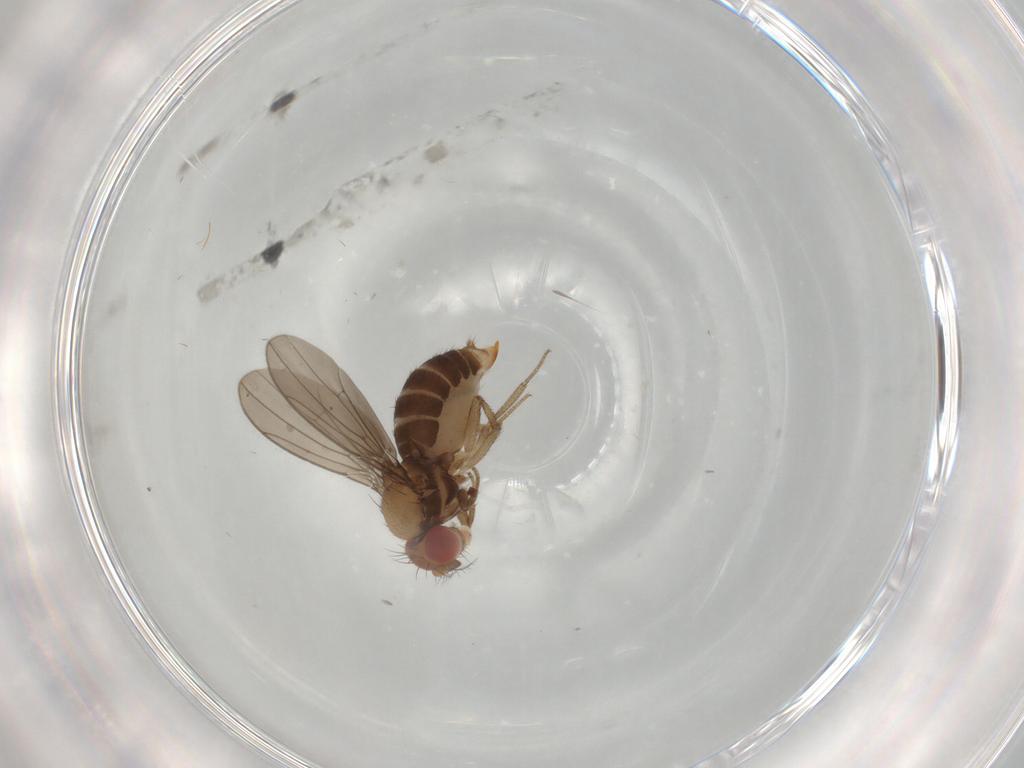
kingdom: Animalia
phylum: Arthropoda
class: Insecta
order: Diptera
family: Drosophilidae
